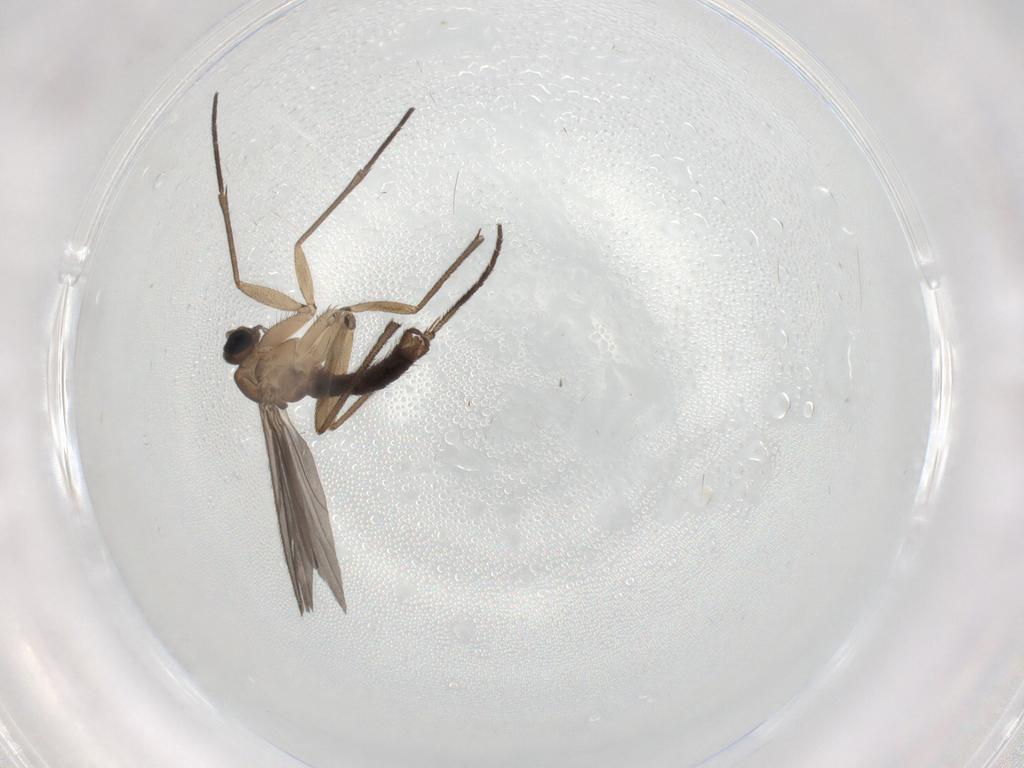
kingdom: Animalia
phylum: Arthropoda
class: Insecta
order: Diptera
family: Sciaridae
